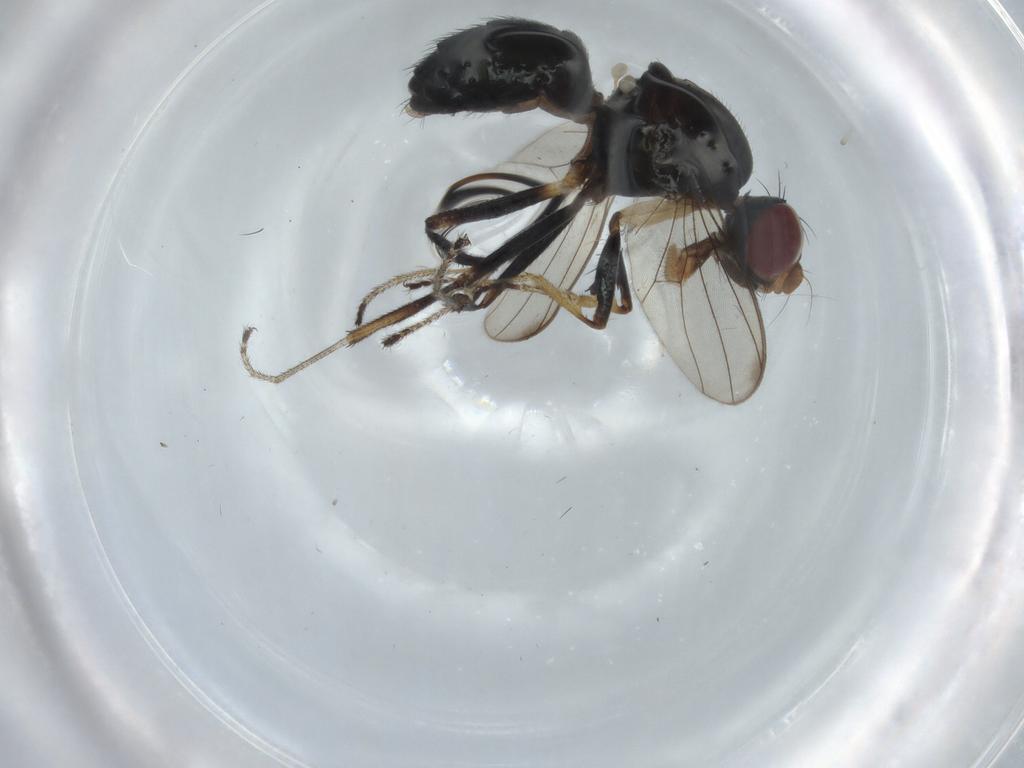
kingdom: Animalia
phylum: Arthropoda
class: Insecta
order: Diptera
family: Sepsidae
